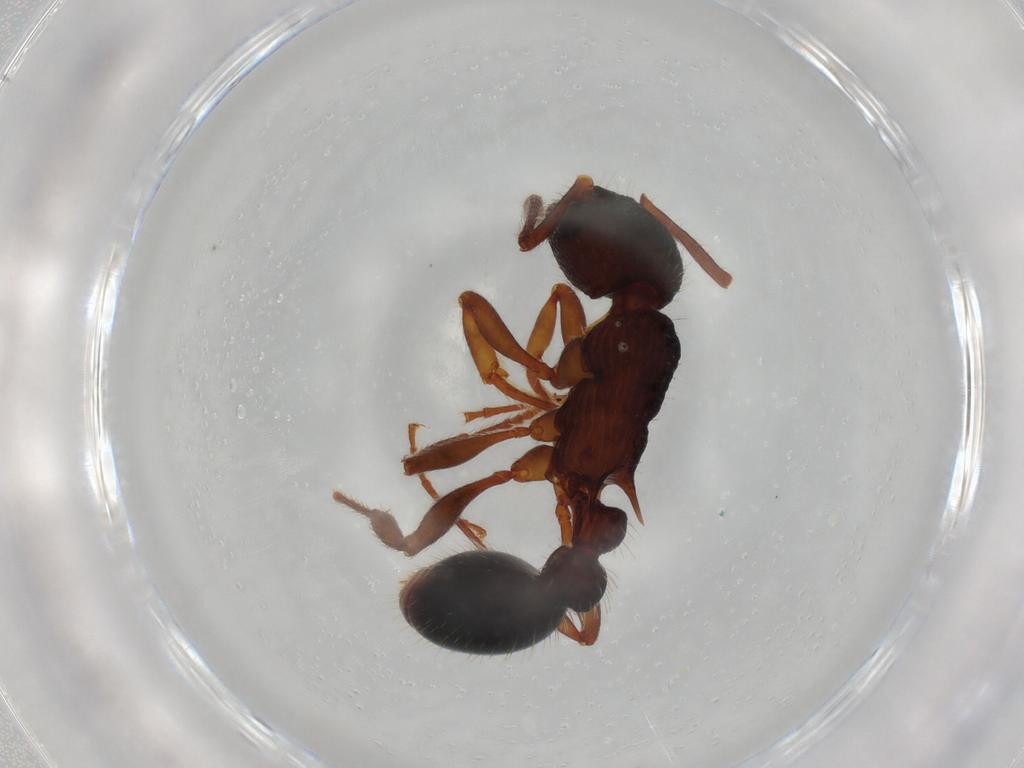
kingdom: Animalia
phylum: Arthropoda
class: Insecta
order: Hymenoptera
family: Formicidae
